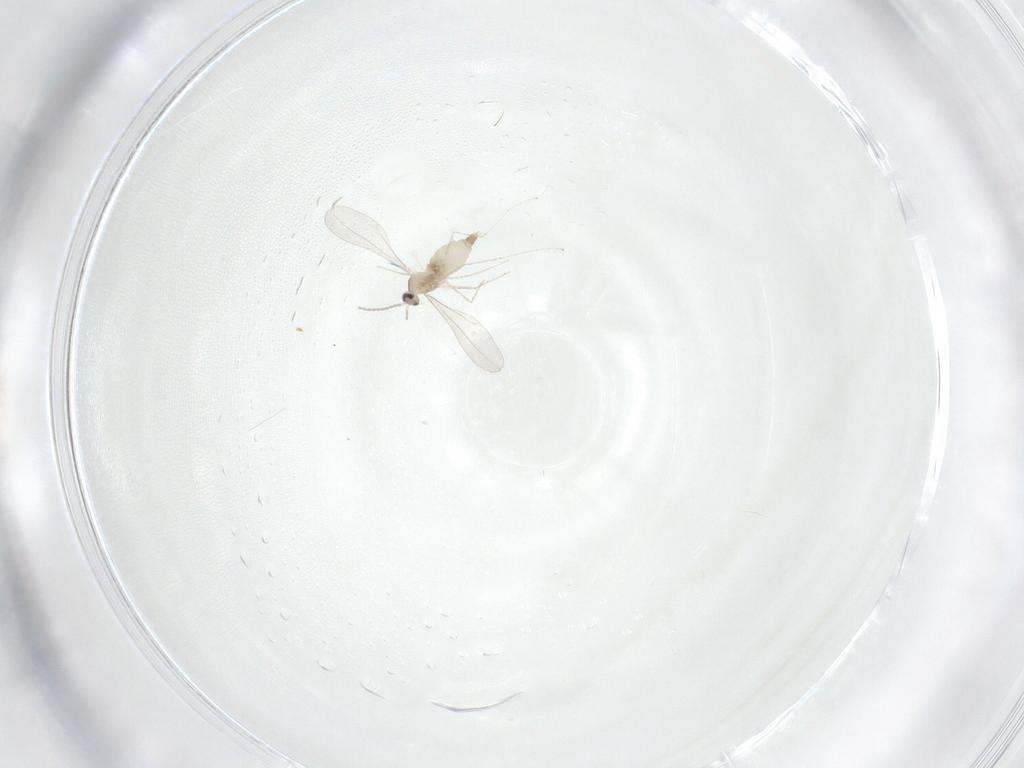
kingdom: Animalia
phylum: Arthropoda
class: Insecta
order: Diptera
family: Cecidomyiidae
